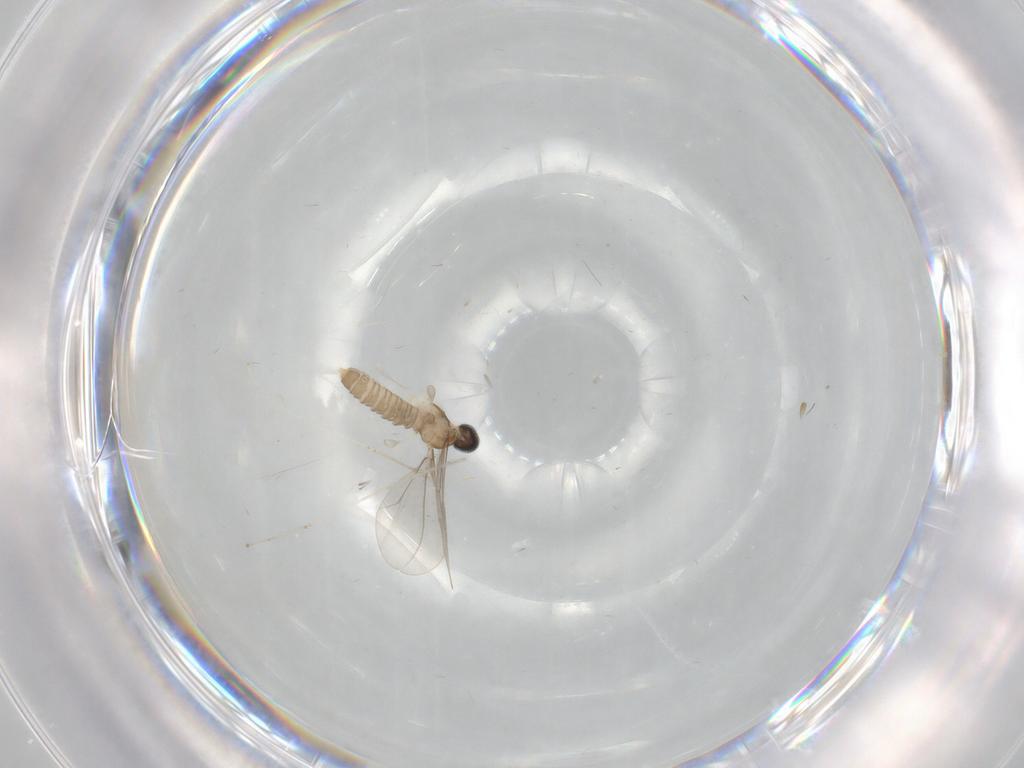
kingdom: Animalia
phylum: Arthropoda
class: Insecta
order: Diptera
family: Cecidomyiidae
